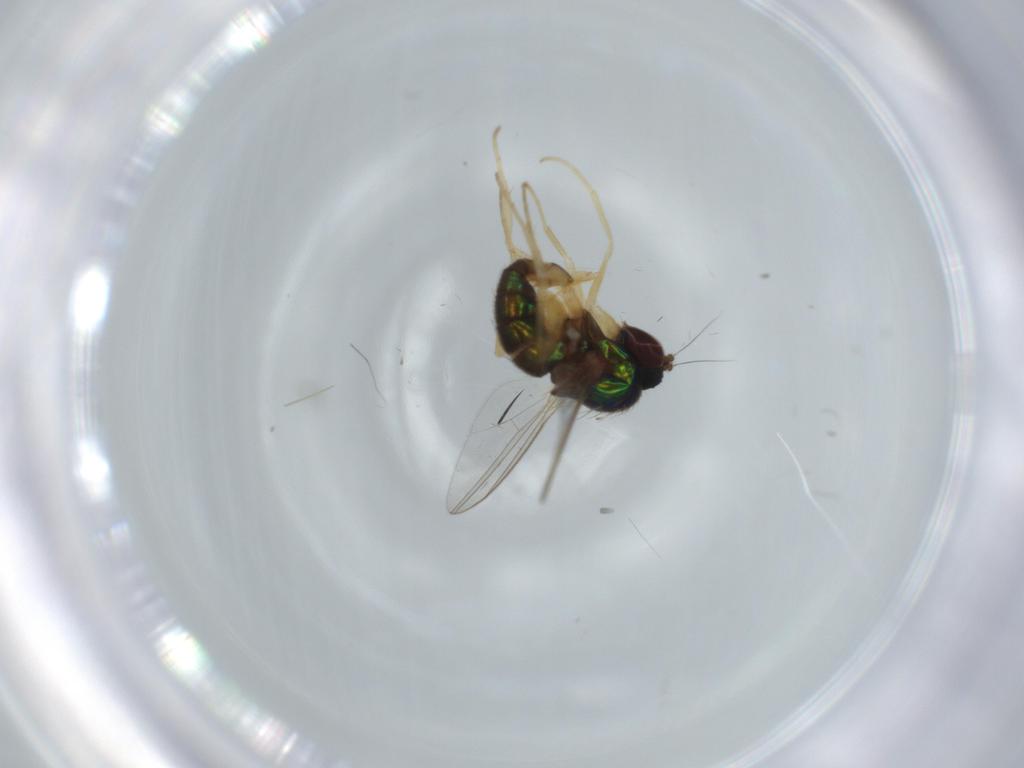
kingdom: Animalia
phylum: Arthropoda
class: Insecta
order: Diptera
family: Dolichopodidae
